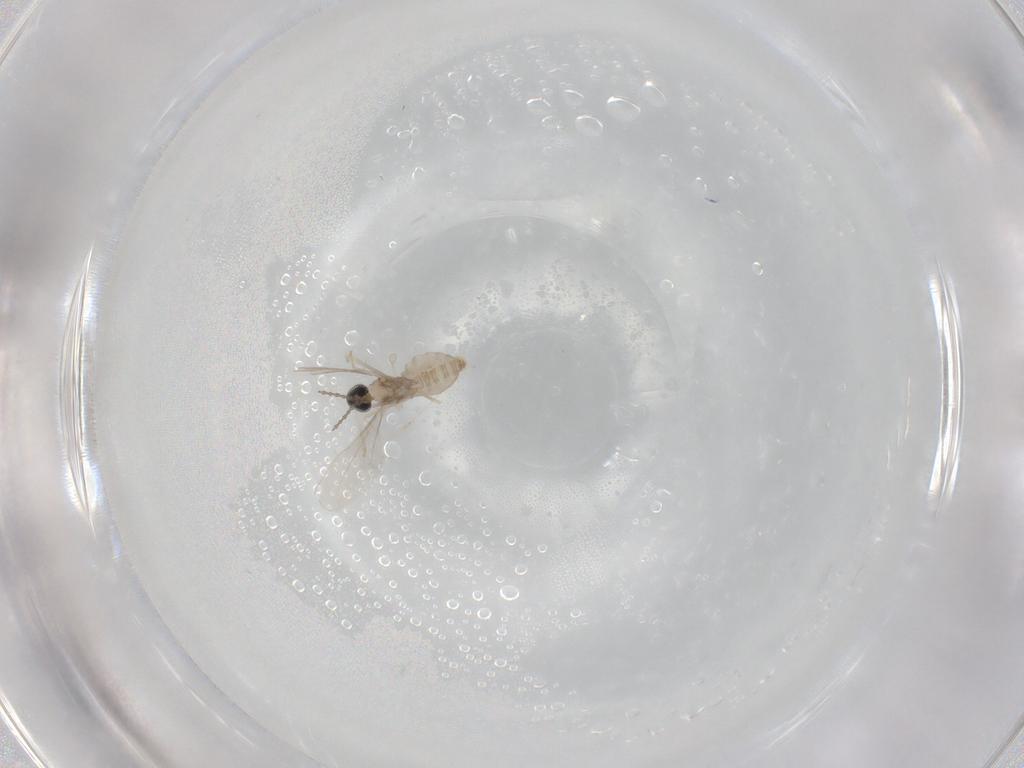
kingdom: Animalia
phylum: Arthropoda
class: Insecta
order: Diptera
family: Cecidomyiidae
